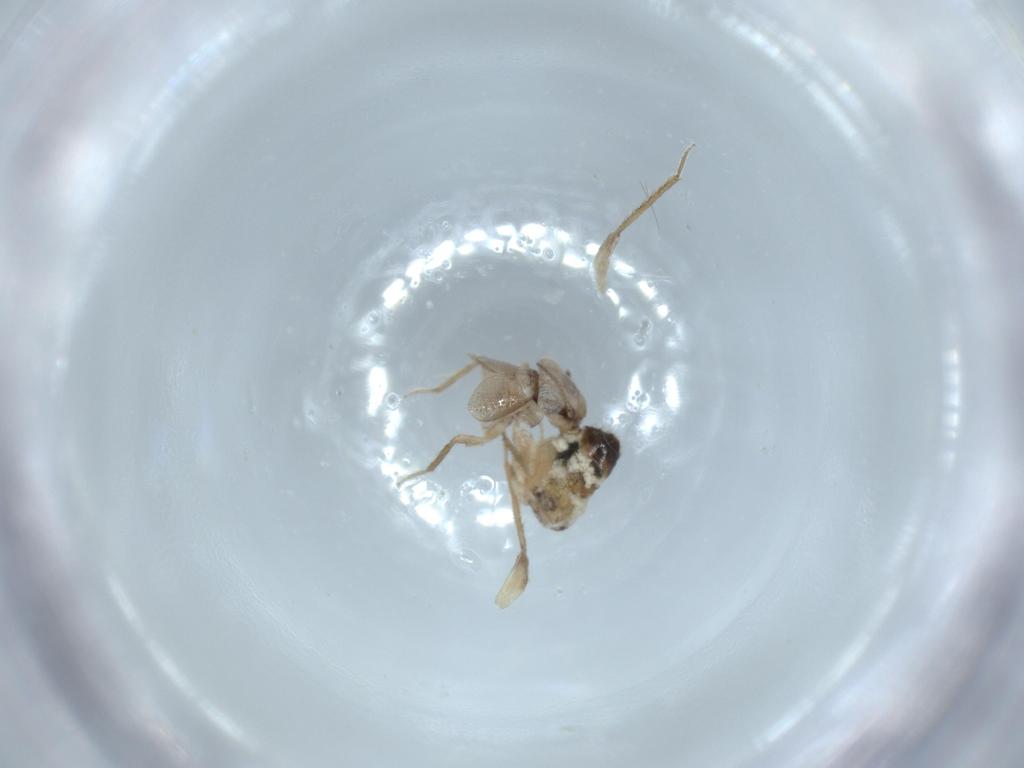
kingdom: Animalia
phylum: Arthropoda
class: Insecta
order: Psocodea
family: Lepidopsocidae
